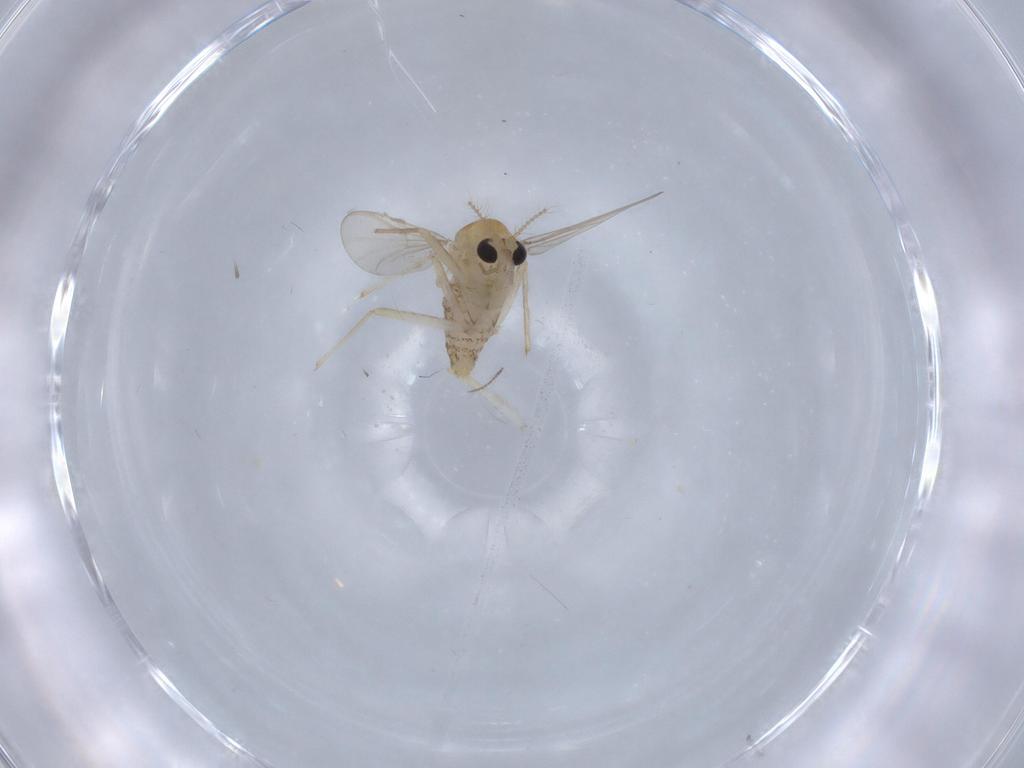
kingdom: Animalia
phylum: Arthropoda
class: Insecta
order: Diptera
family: Chironomidae
